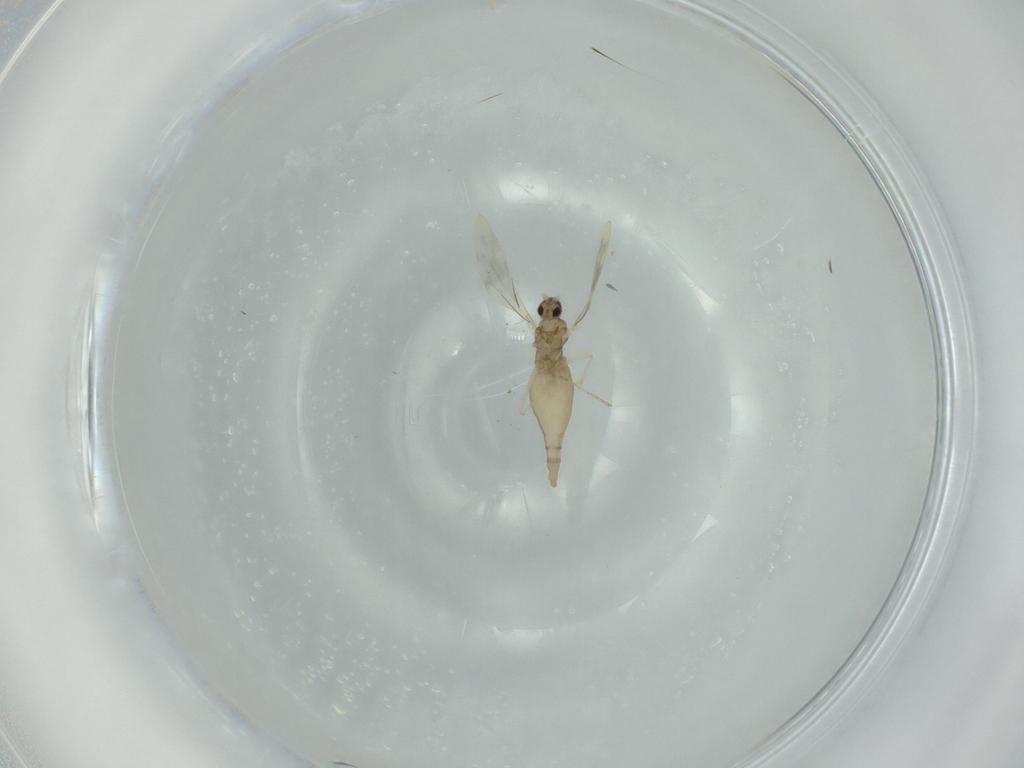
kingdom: Animalia
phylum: Arthropoda
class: Insecta
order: Diptera
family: Cecidomyiidae
